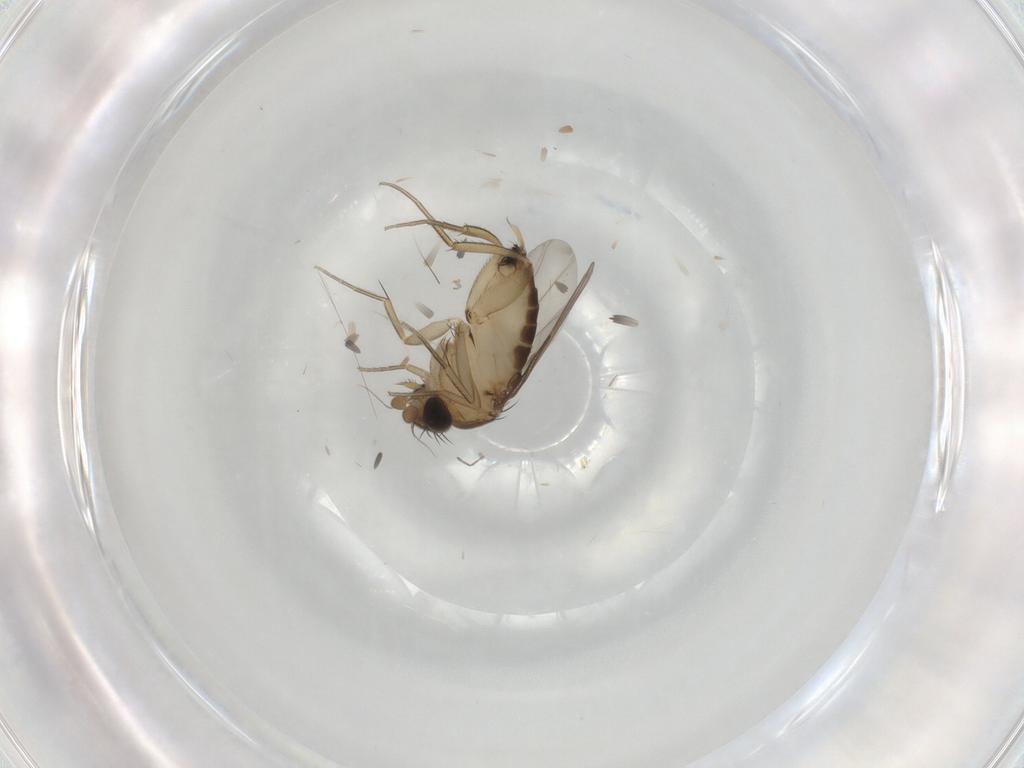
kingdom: Animalia
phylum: Arthropoda
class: Insecta
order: Diptera
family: Phoridae
